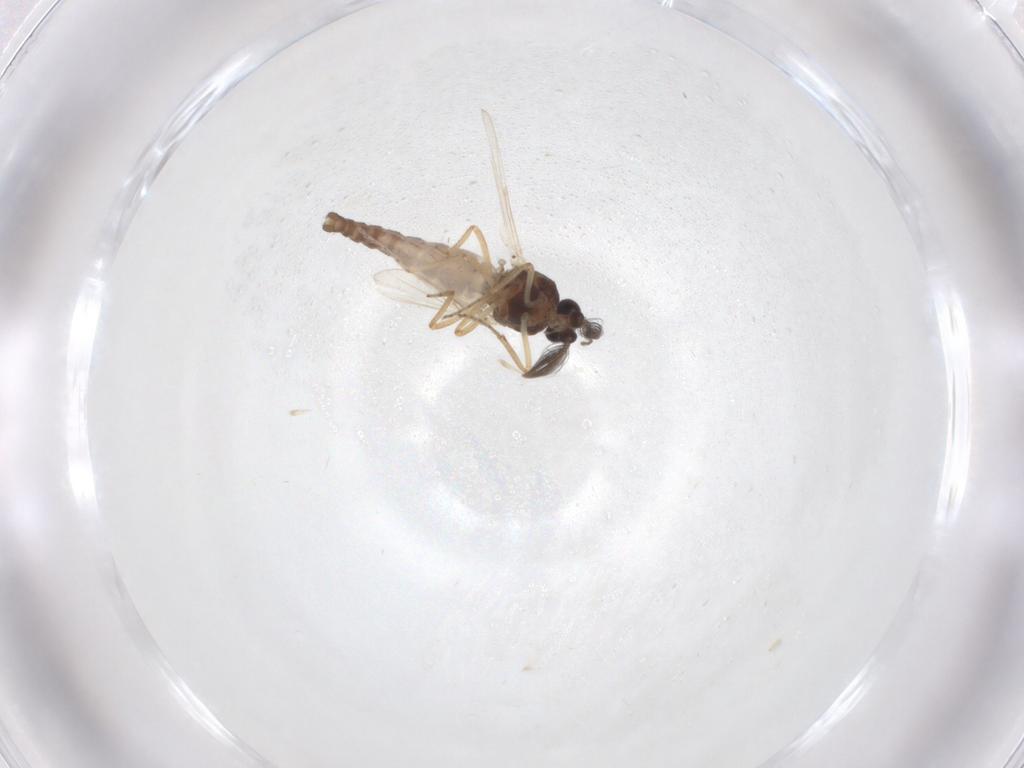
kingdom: Animalia
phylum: Arthropoda
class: Insecta
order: Diptera
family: Ceratopogonidae
